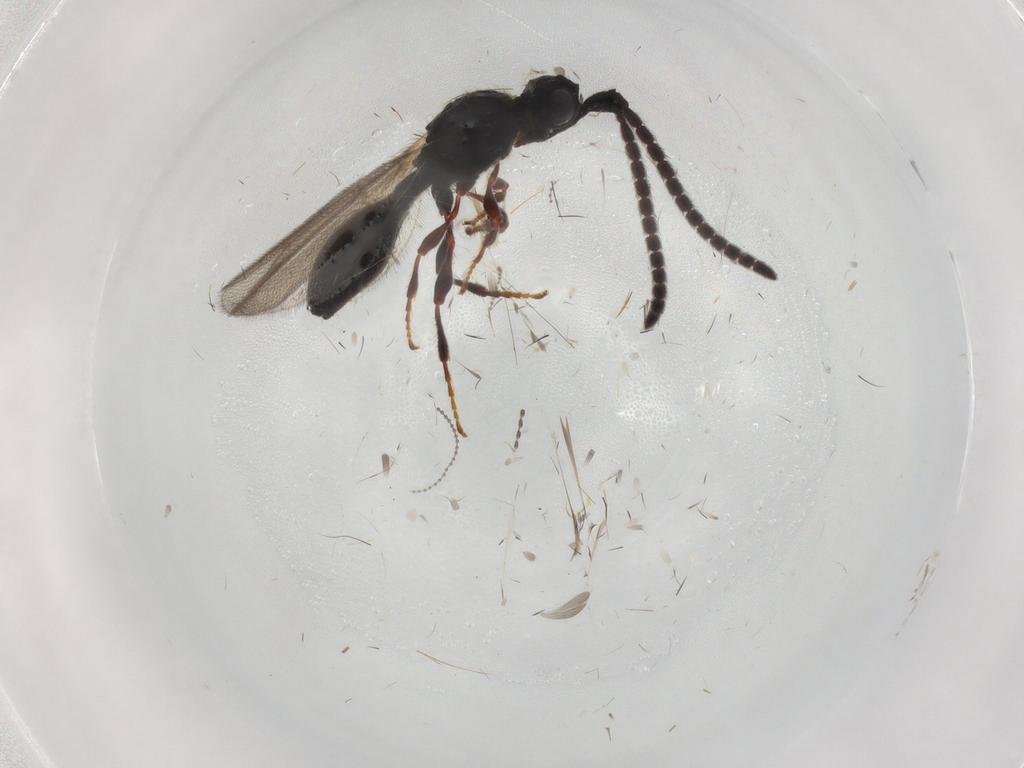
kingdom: Animalia
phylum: Arthropoda
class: Insecta
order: Hymenoptera
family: Diapriidae
